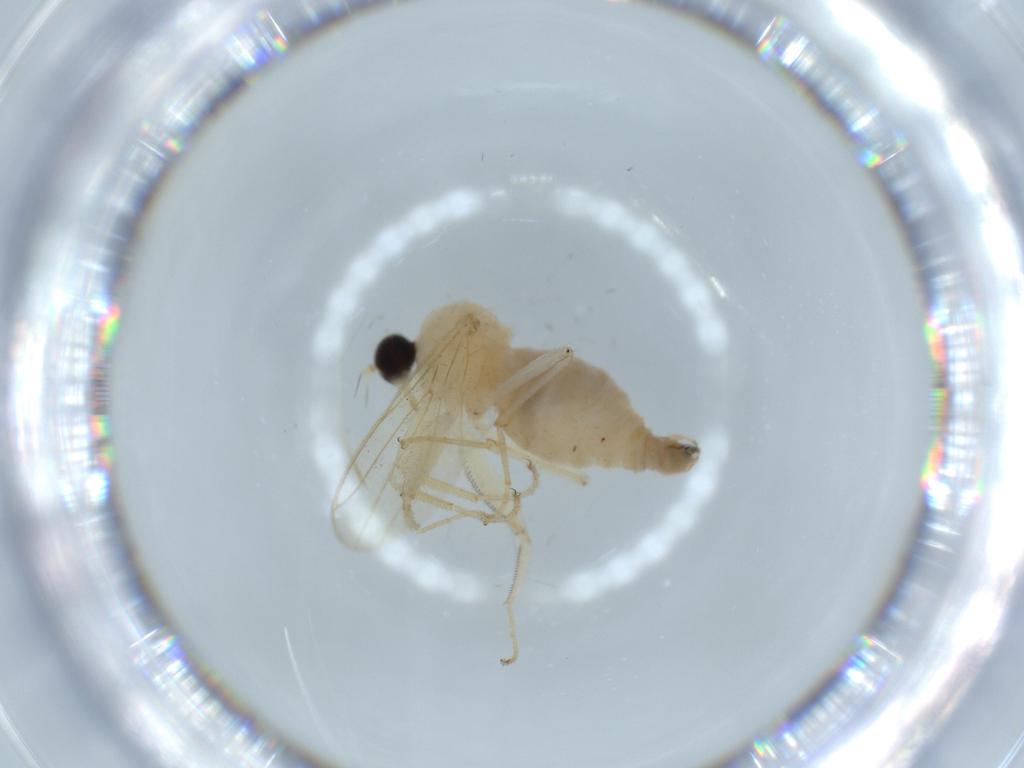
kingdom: Animalia
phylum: Arthropoda
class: Insecta
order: Diptera
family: Hybotidae
